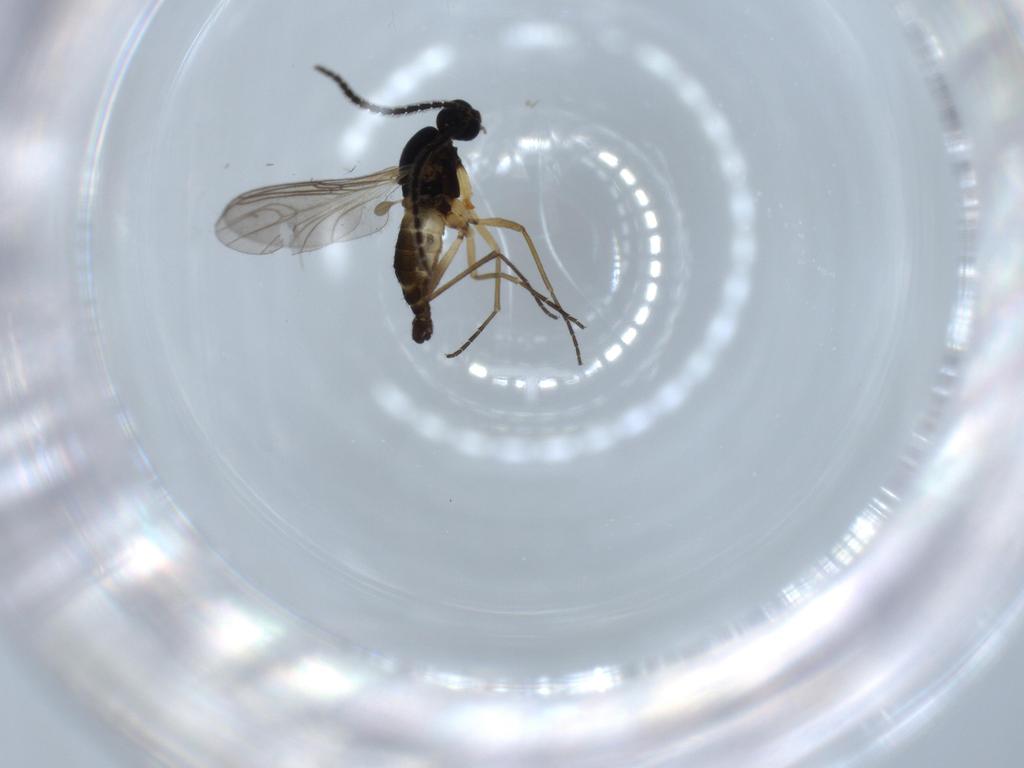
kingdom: Animalia
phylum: Arthropoda
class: Insecta
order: Diptera
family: Sciaridae
